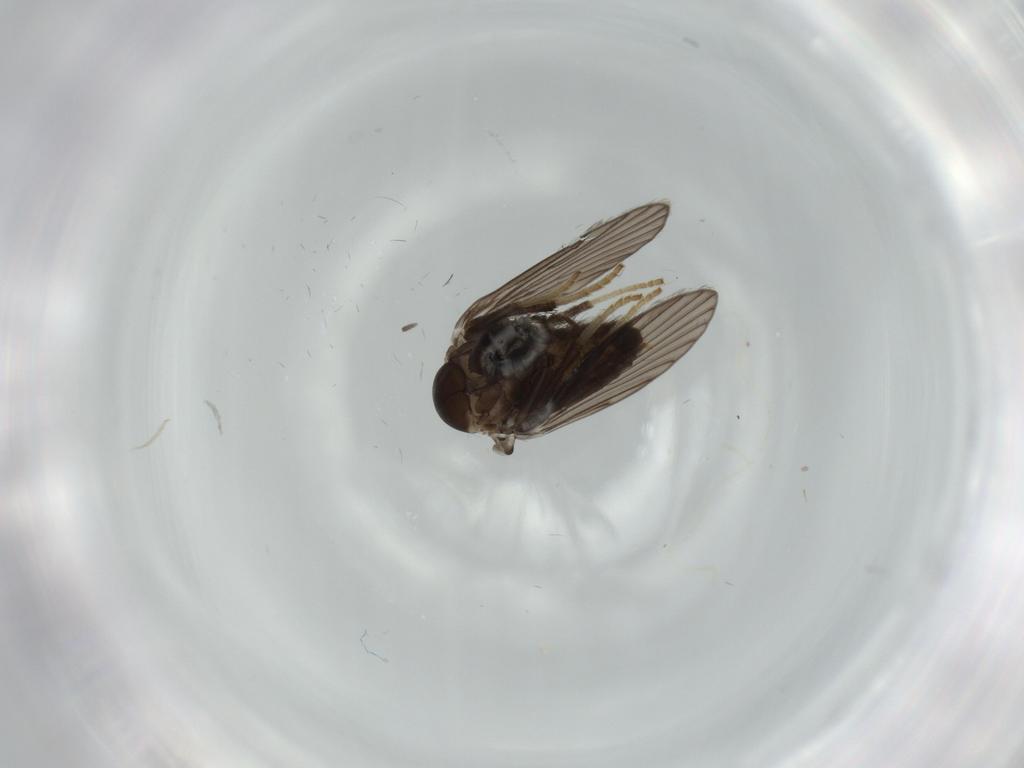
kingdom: Animalia
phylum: Arthropoda
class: Insecta
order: Diptera
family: Psychodidae
